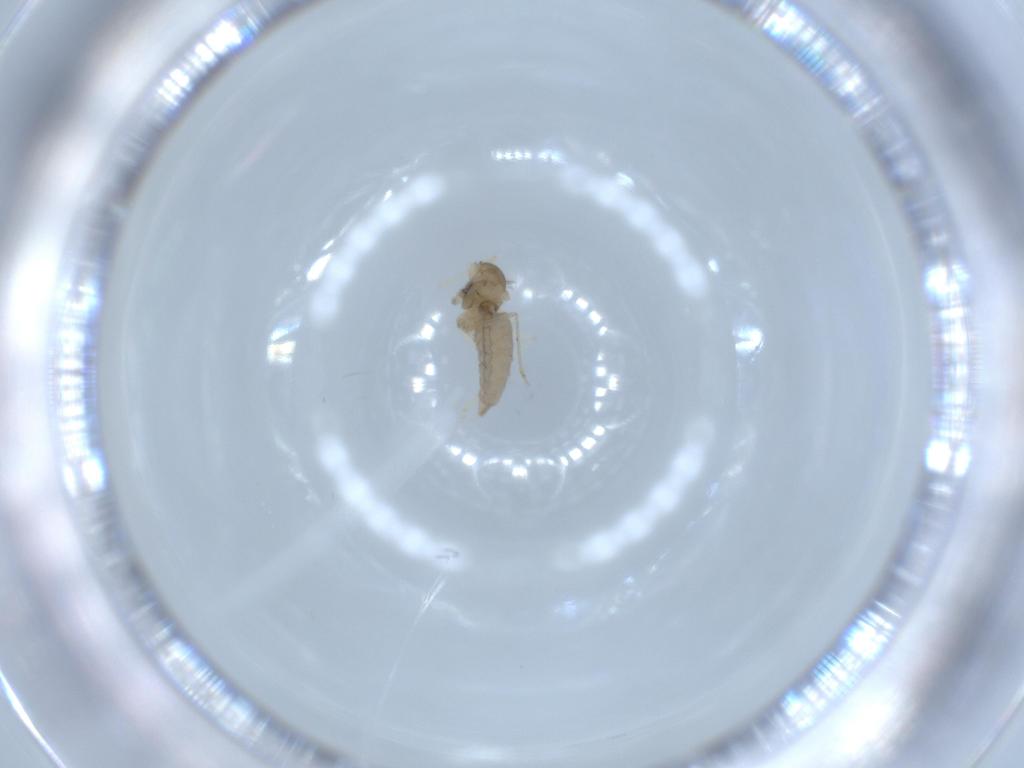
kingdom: Animalia
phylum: Arthropoda
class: Insecta
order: Diptera
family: Cecidomyiidae
